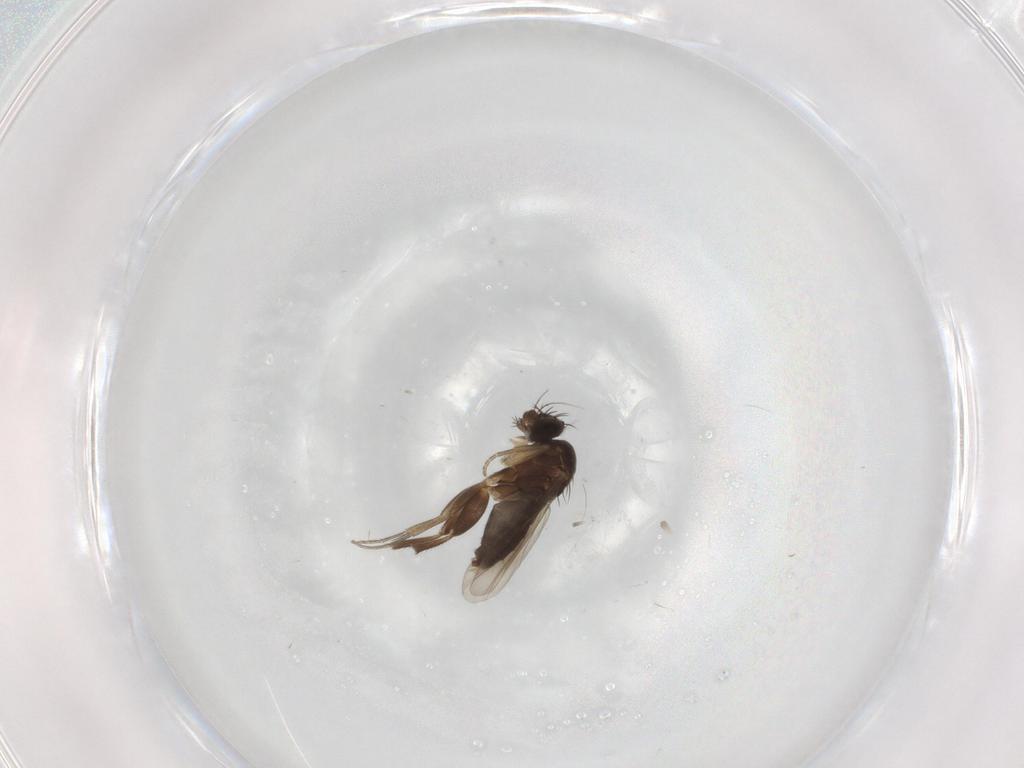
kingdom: Animalia
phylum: Arthropoda
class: Insecta
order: Diptera
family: Phoridae
